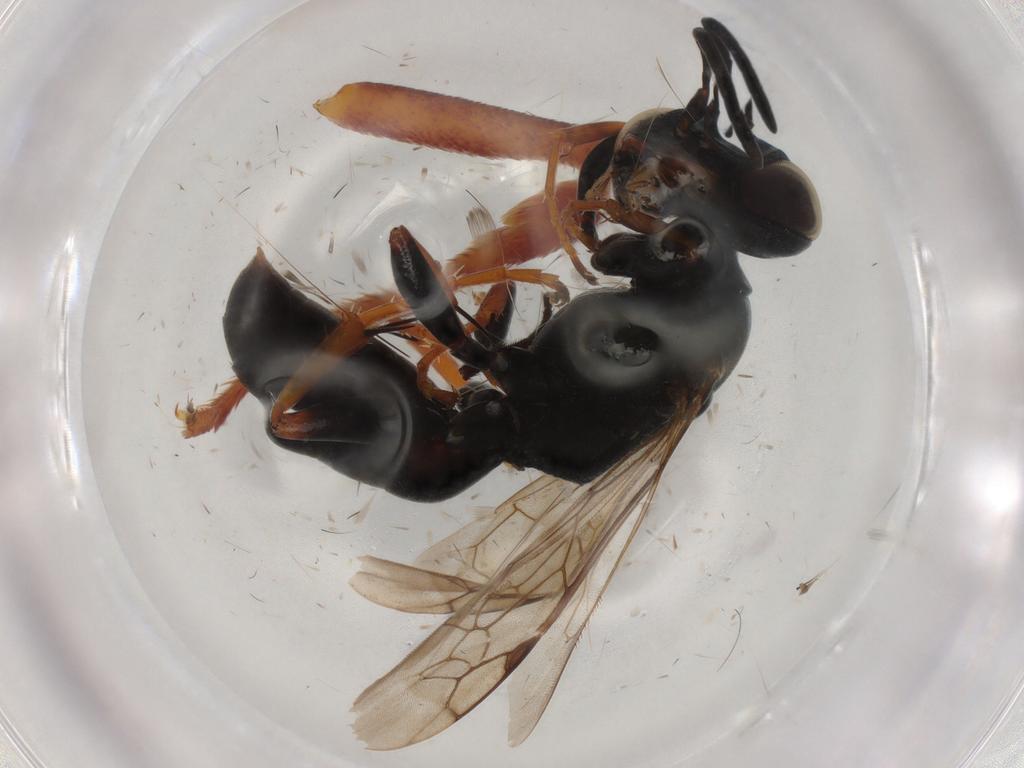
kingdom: Animalia
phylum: Arthropoda
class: Insecta
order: Hymenoptera
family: Crabronidae
